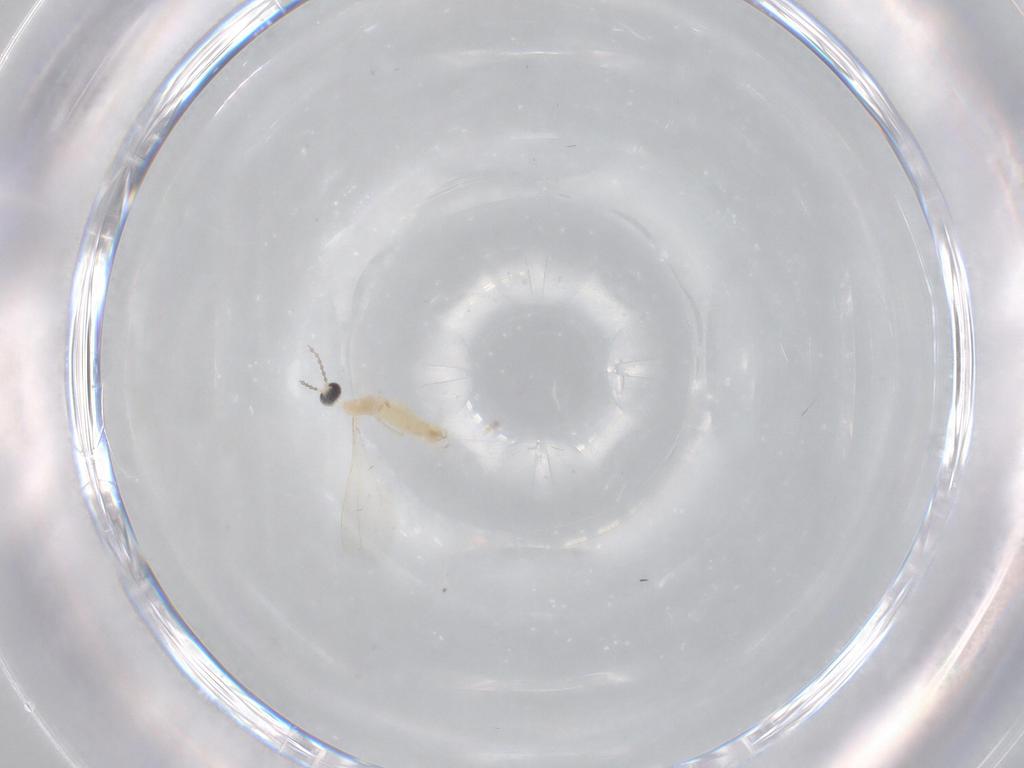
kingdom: Animalia
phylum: Arthropoda
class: Insecta
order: Diptera
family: Cecidomyiidae
